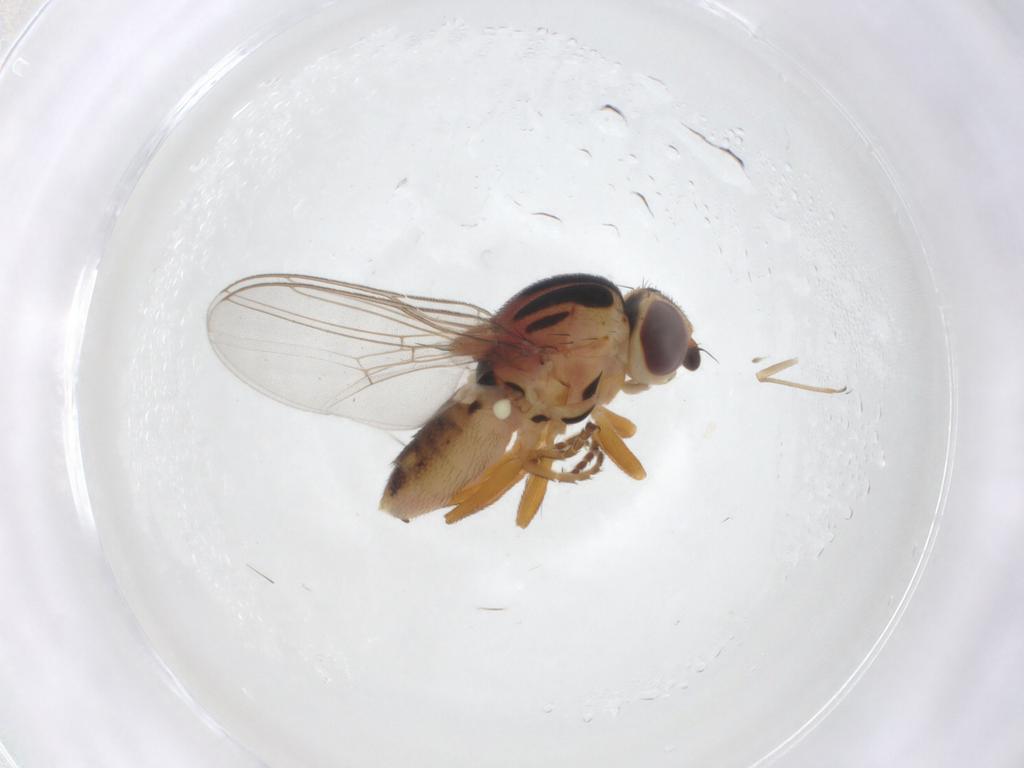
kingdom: Animalia
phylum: Arthropoda
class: Insecta
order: Diptera
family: Chloropidae
